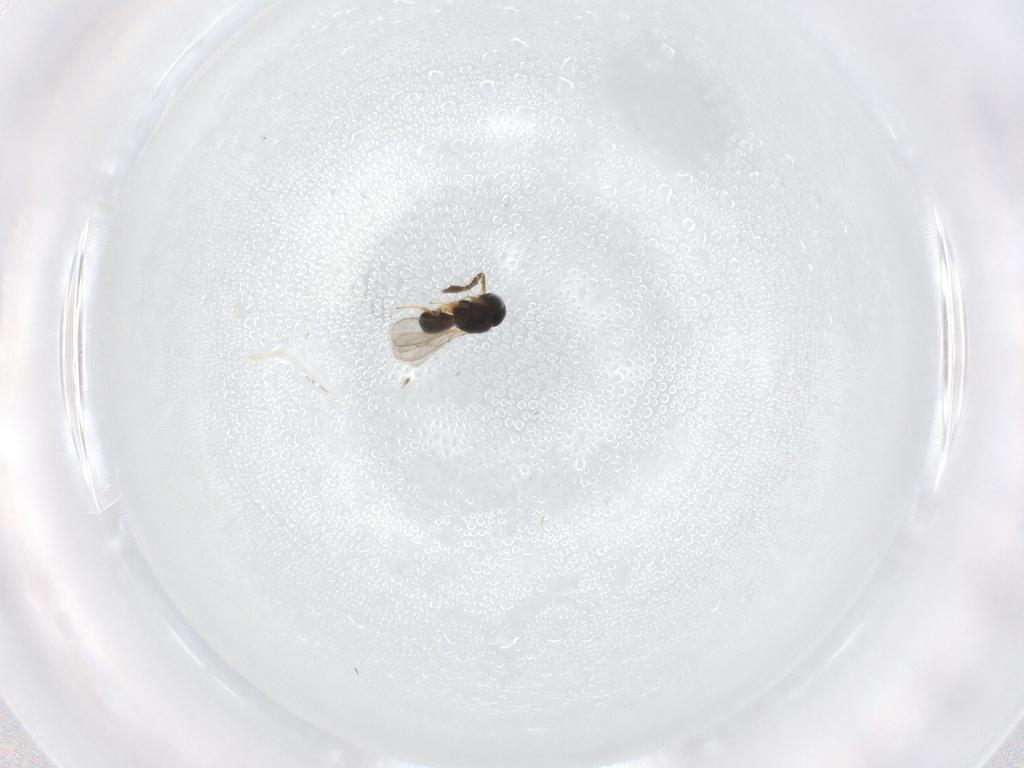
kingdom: Animalia
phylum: Arthropoda
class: Insecta
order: Hymenoptera
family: Scelionidae
